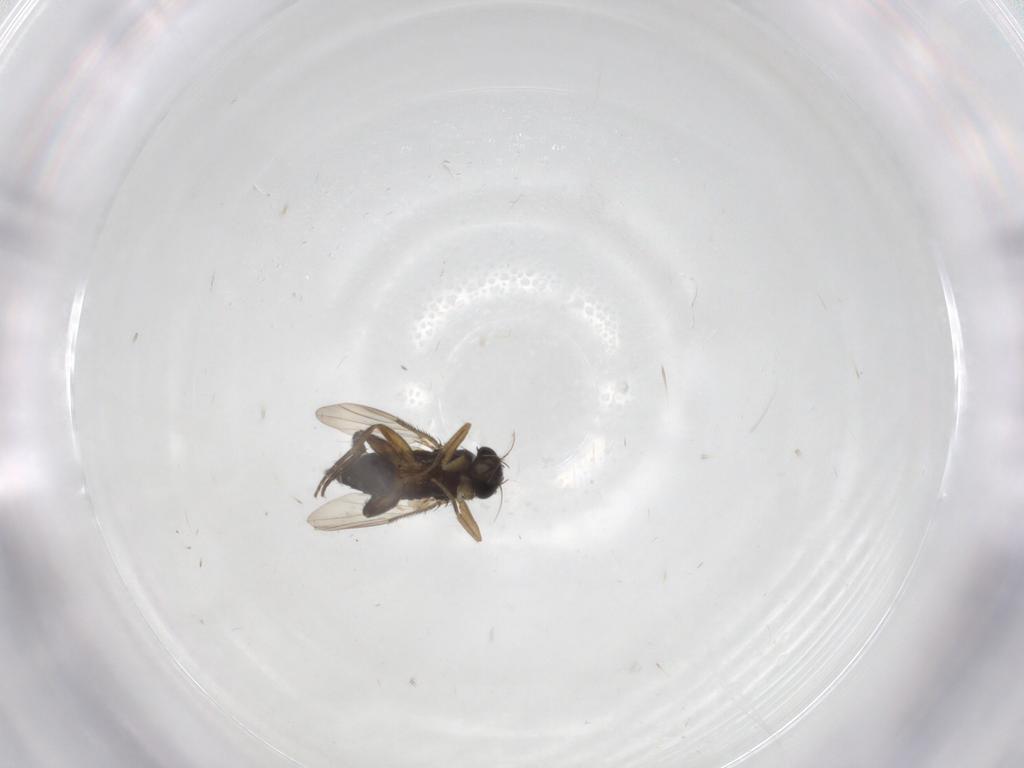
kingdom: Animalia
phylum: Arthropoda
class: Insecta
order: Diptera
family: Phoridae
